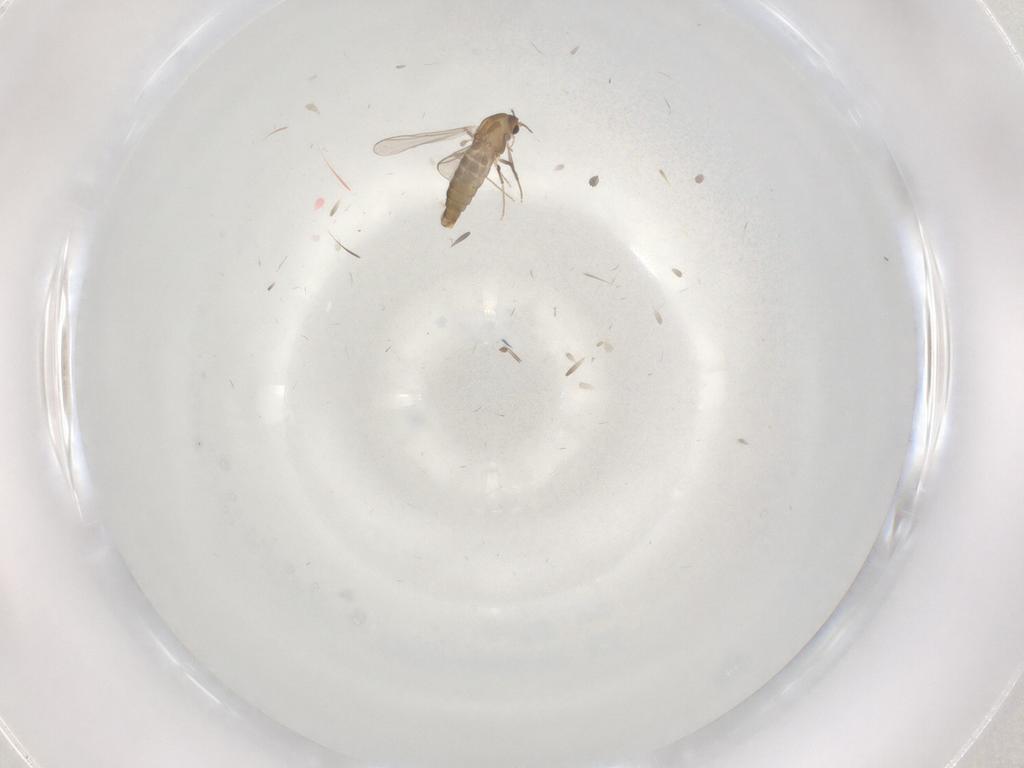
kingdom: Animalia
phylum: Arthropoda
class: Insecta
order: Diptera
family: Chironomidae
